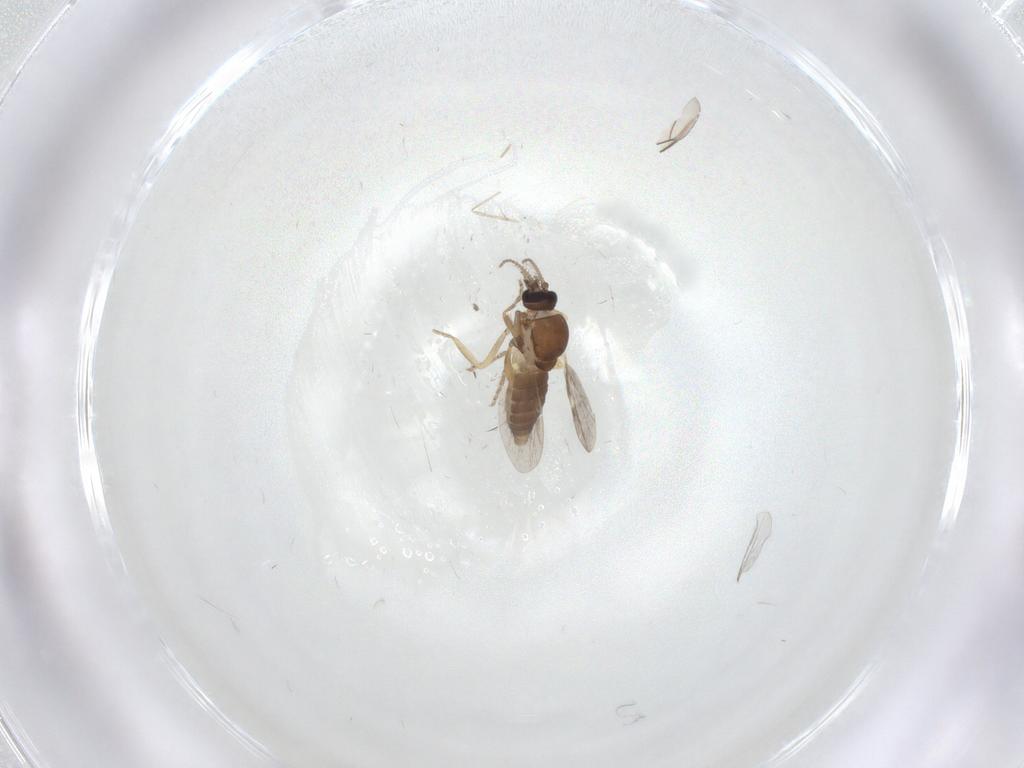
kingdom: Animalia
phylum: Arthropoda
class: Insecta
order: Diptera
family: Ceratopogonidae
